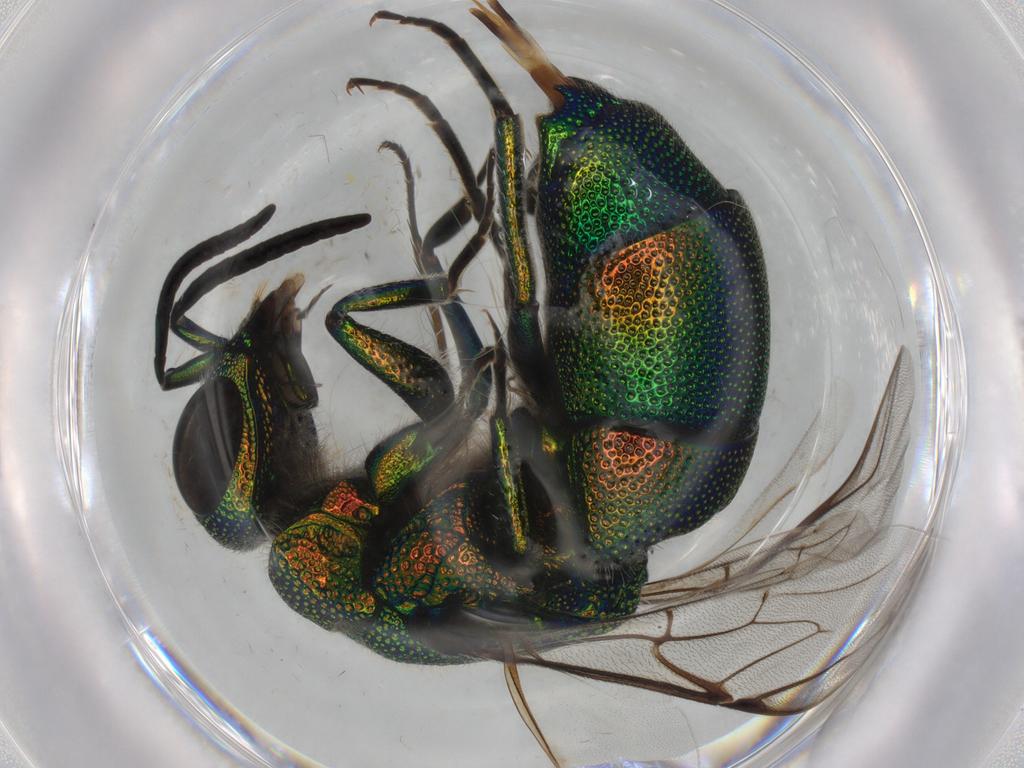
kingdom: Animalia
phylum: Arthropoda
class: Insecta
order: Hymenoptera
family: Chrysididae
